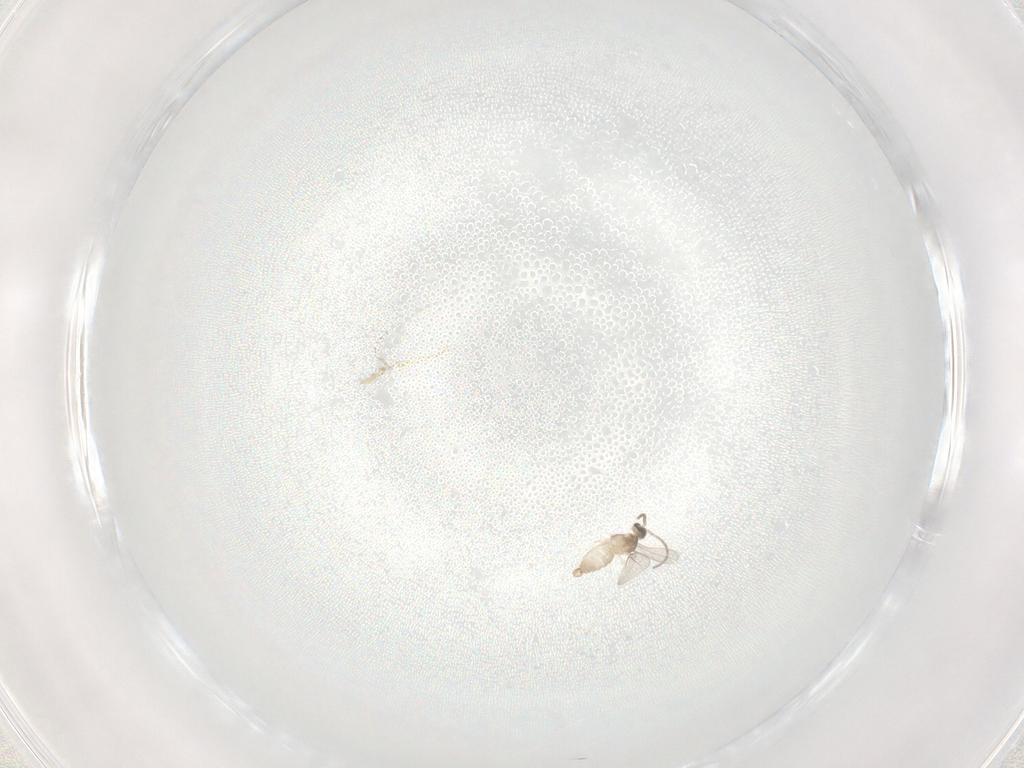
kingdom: Animalia
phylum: Arthropoda
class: Insecta
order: Diptera
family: Cecidomyiidae
